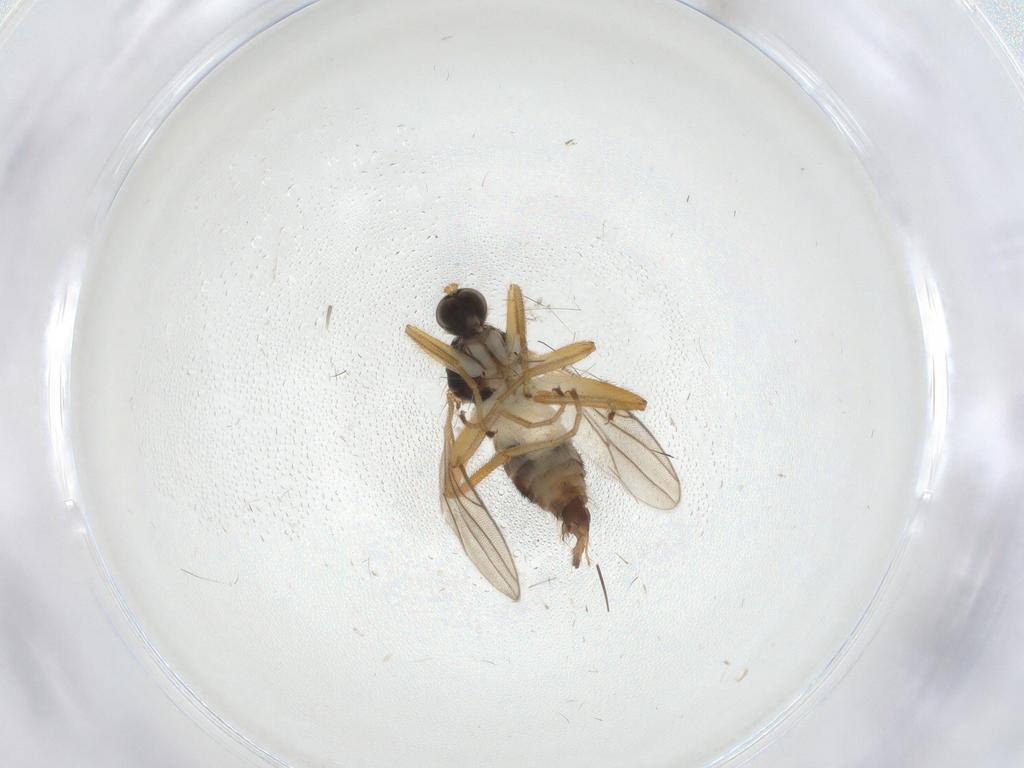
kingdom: Animalia
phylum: Arthropoda
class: Insecta
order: Diptera
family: Hybotidae
